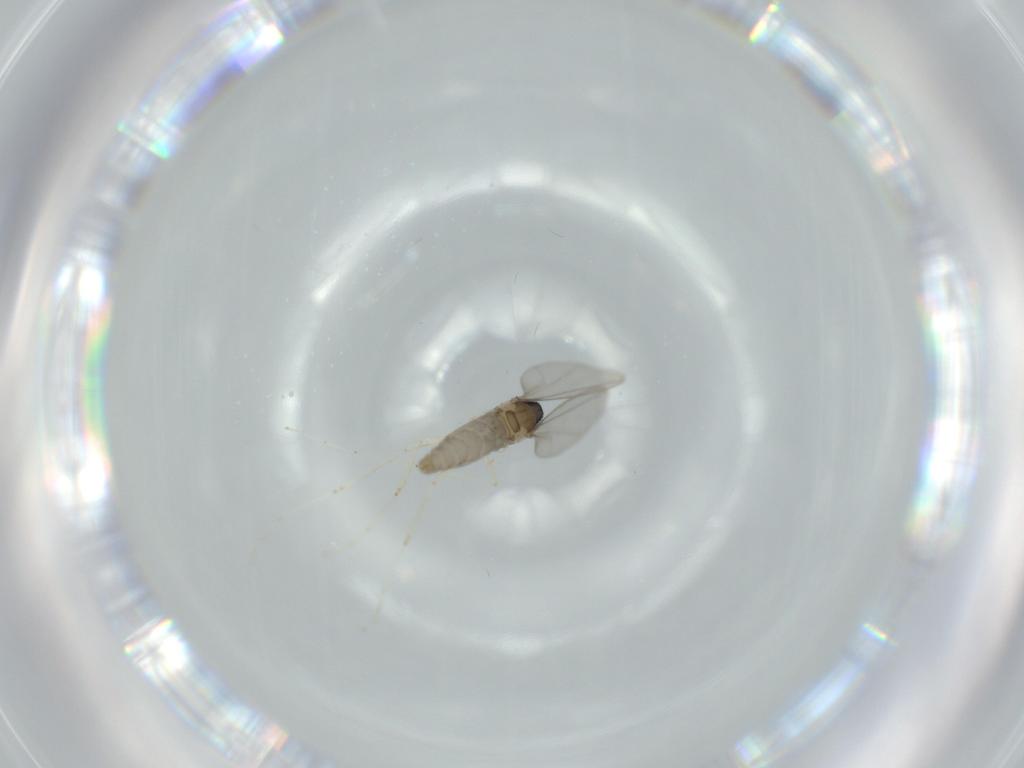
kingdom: Animalia
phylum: Arthropoda
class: Insecta
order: Diptera
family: Cecidomyiidae
